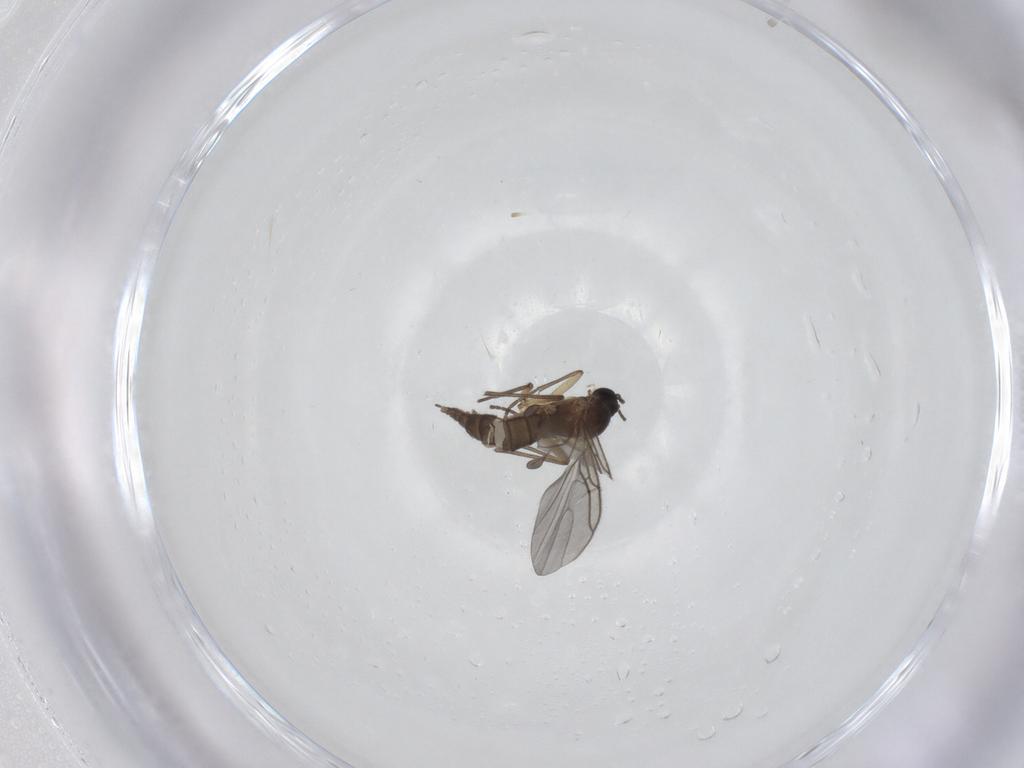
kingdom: Animalia
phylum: Arthropoda
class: Insecta
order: Diptera
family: Sciaridae
